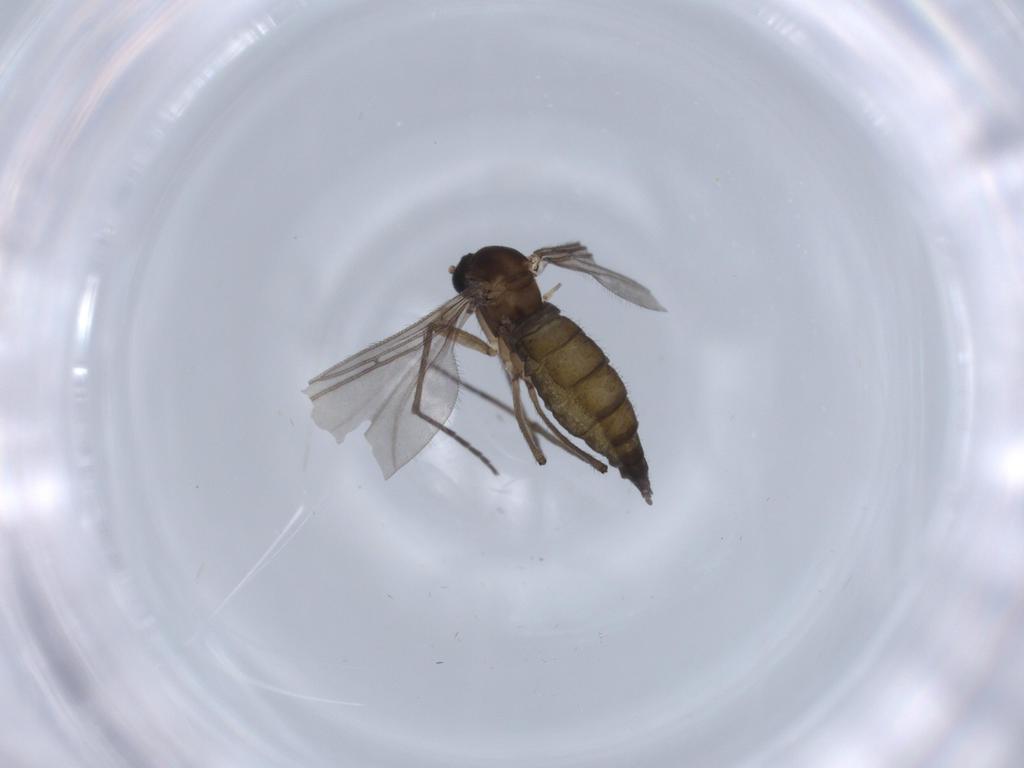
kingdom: Animalia
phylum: Arthropoda
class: Insecta
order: Diptera
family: Sciaridae
